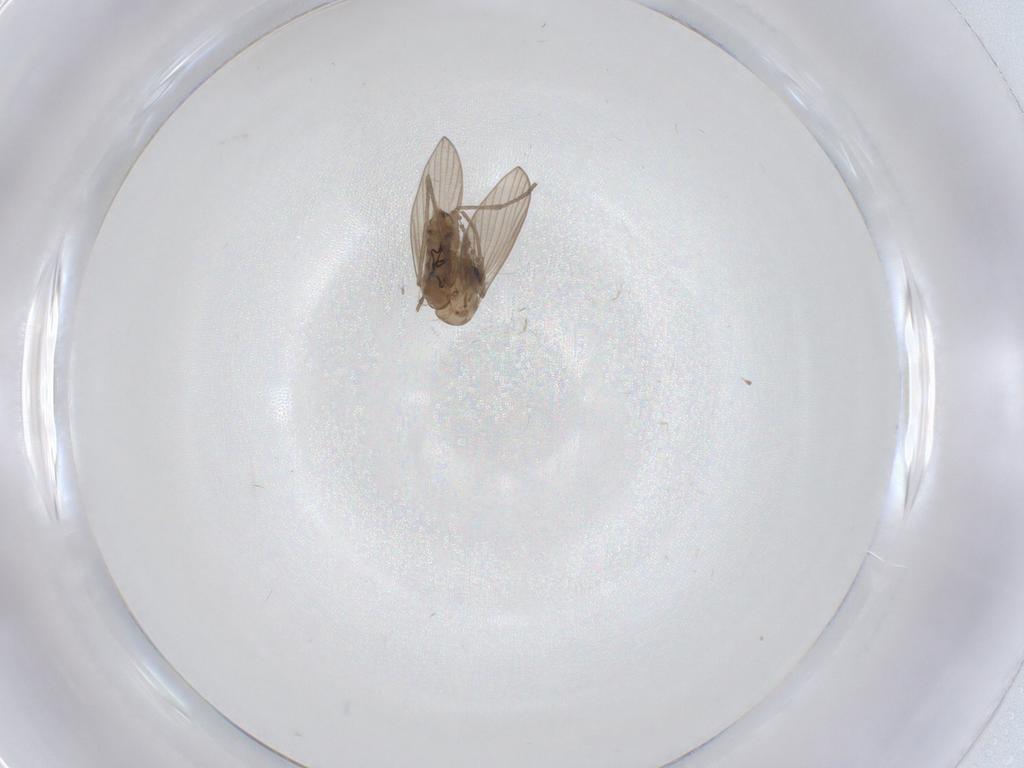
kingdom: Animalia
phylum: Arthropoda
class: Insecta
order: Diptera
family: Psychodidae
